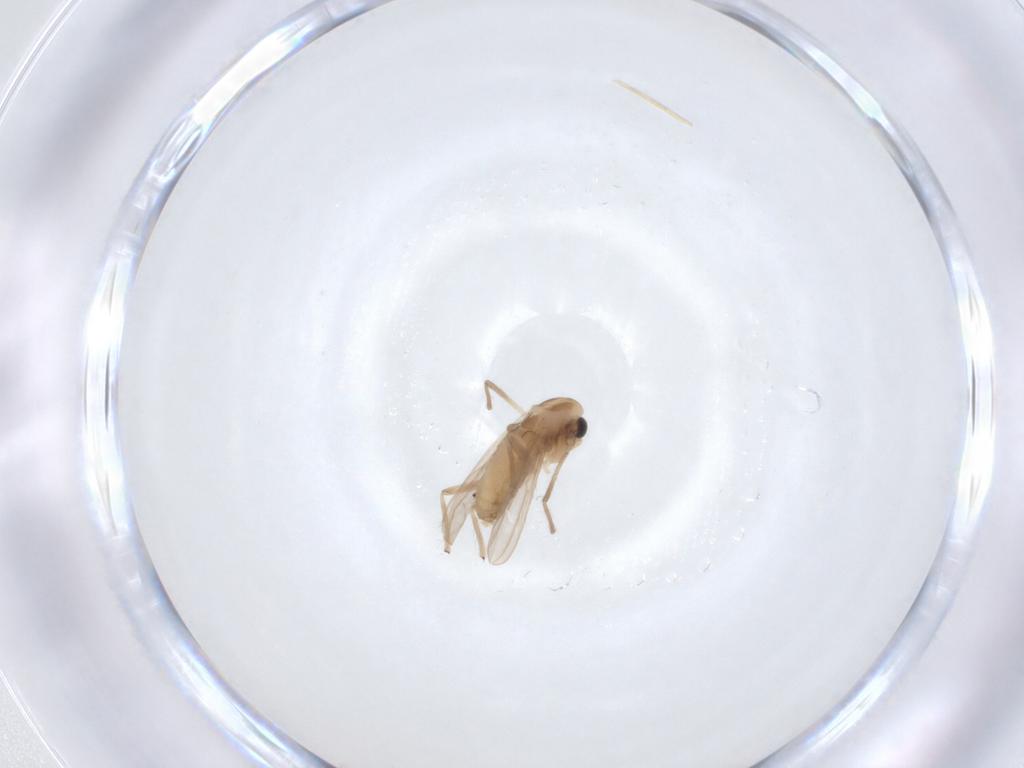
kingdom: Animalia
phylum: Arthropoda
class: Insecta
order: Diptera
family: Chironomidae
